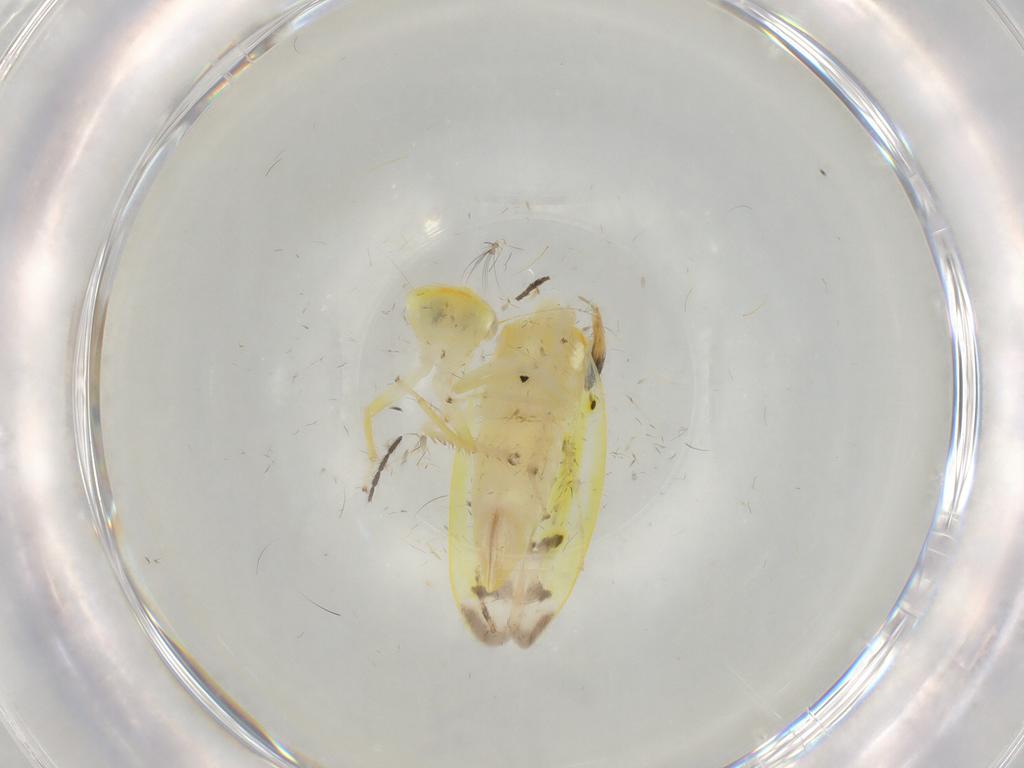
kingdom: Animalia
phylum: Arthropoda
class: Insecta
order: Hemiptera
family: Cicadellidae
